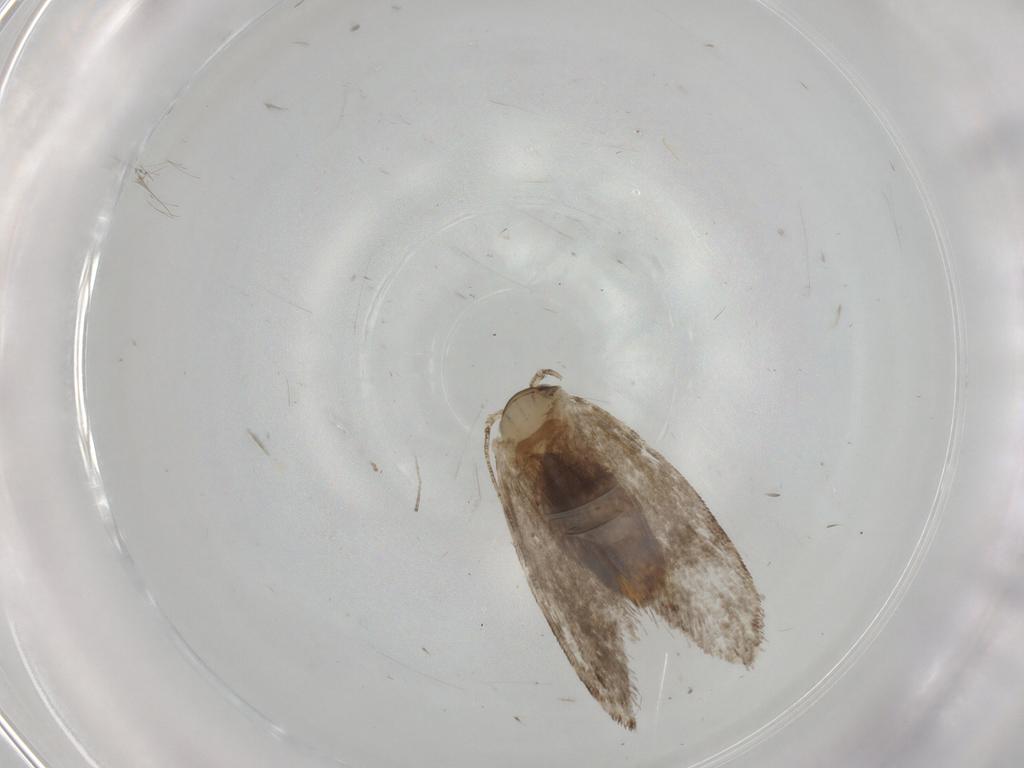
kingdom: Animalia
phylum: Arthropoda
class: Insecta
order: Lepidoptera
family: Tineidae
